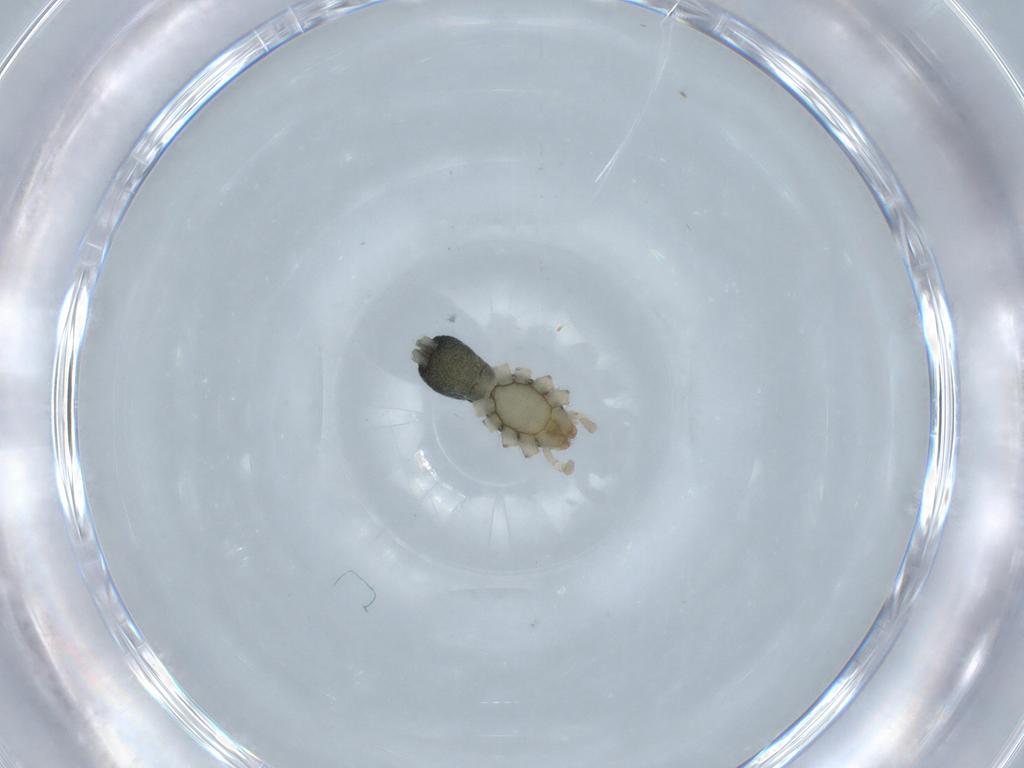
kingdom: Animalia
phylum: Arthropoda
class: Arachnida
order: Araneae
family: Gnaphosidae
